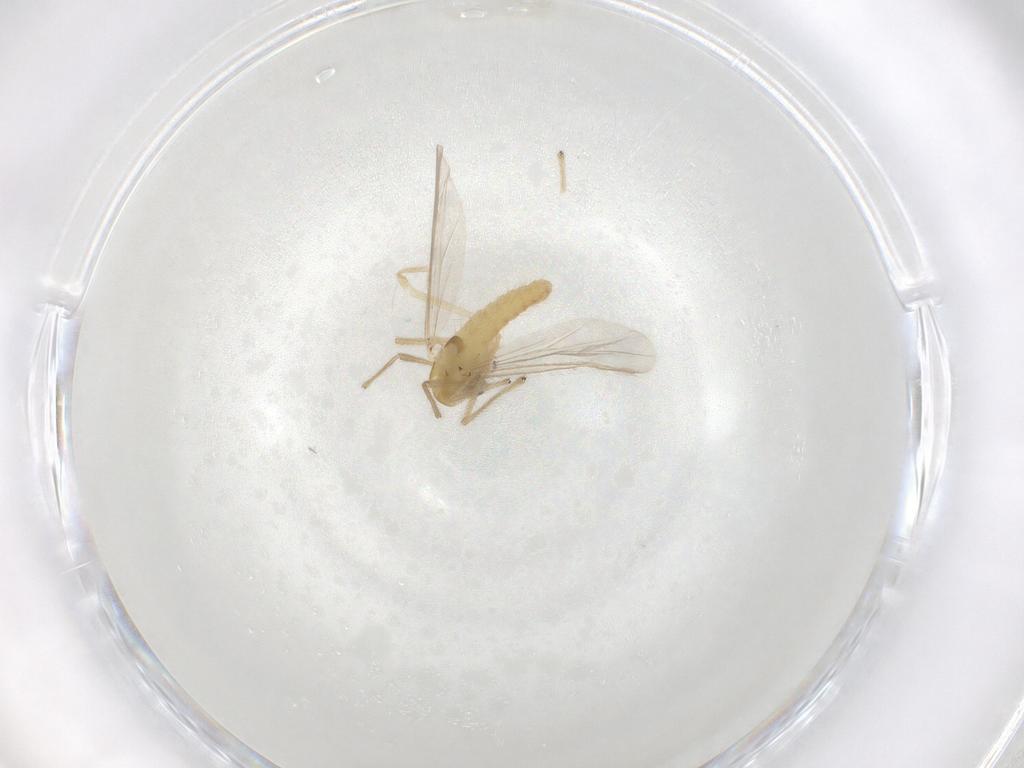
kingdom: Animalia
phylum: Arthropoda
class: Insecta
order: Diptera
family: Chironomidae
